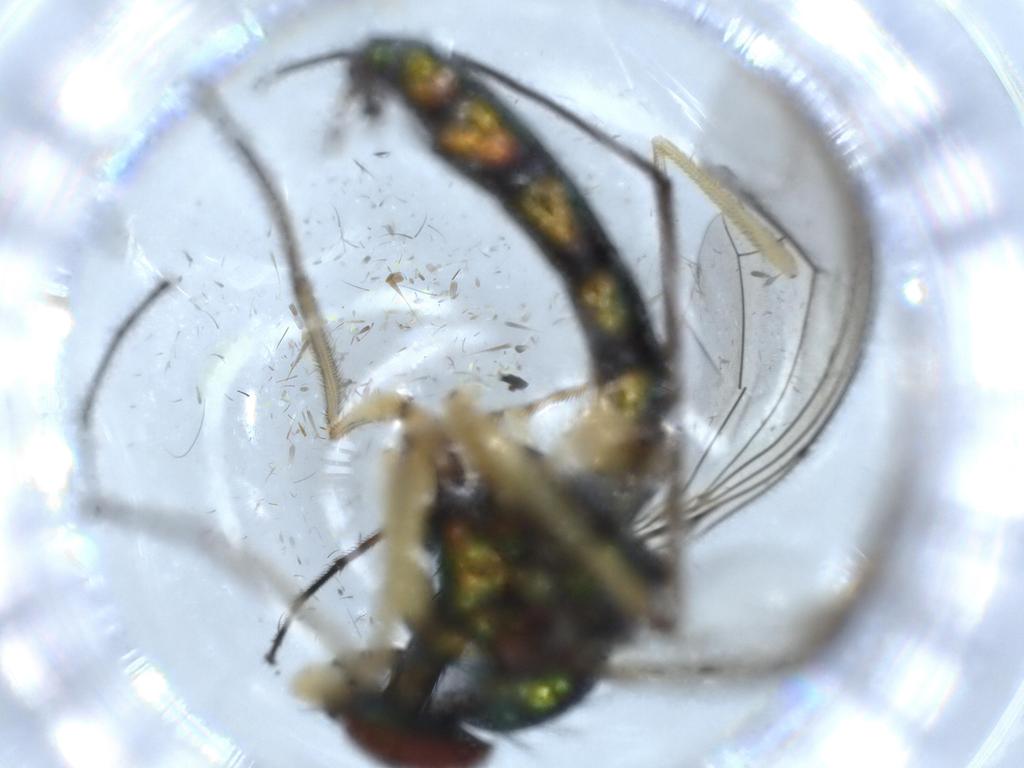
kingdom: Animalia
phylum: Arthropoda
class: Insecta
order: Diptera
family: Dolichopodidae
